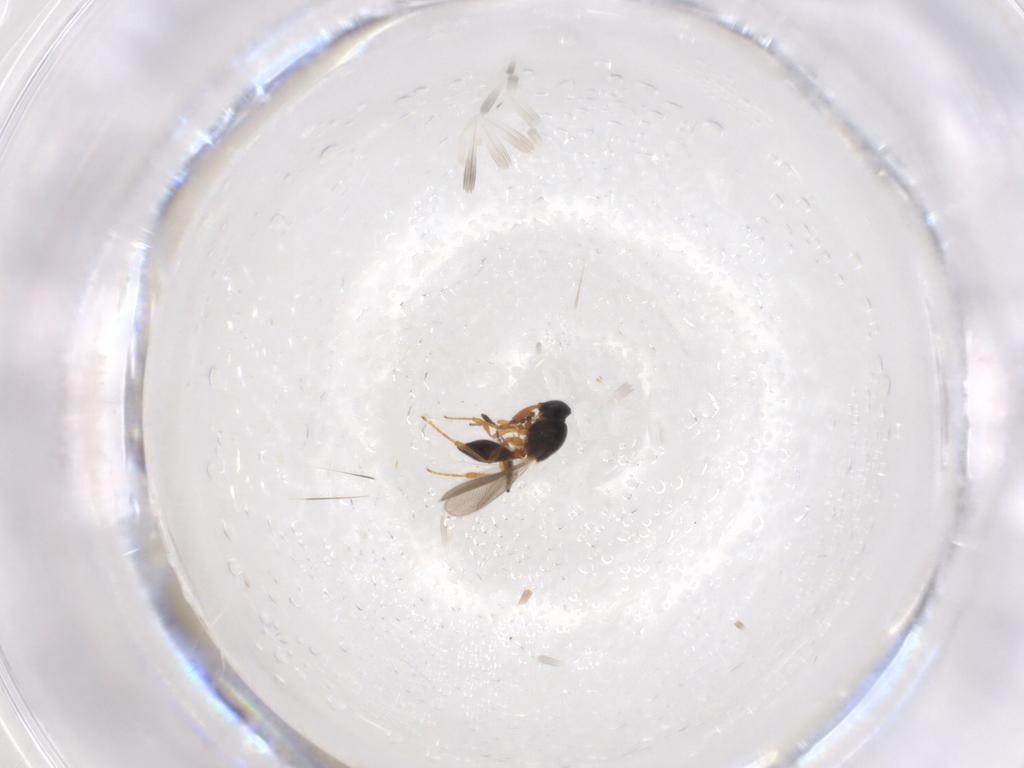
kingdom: Animalia
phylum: Arthropoda
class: Insecta
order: Diptera
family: Ceratopogonidae
